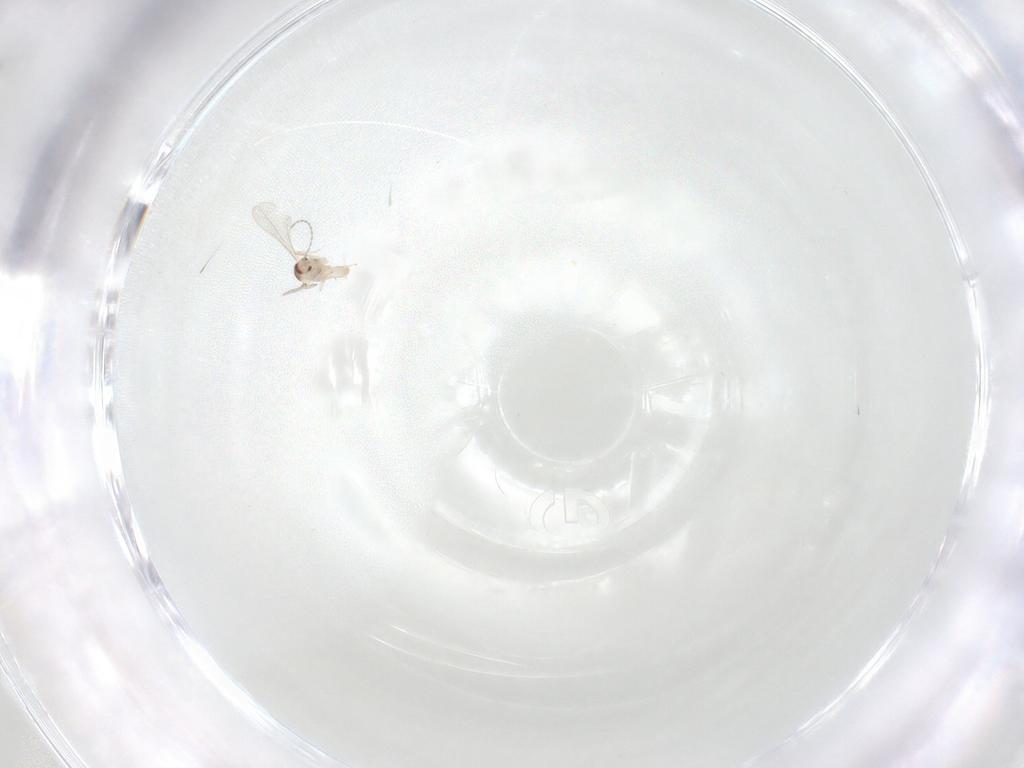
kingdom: Animalia
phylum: Arthropoda
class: Insecta
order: Diptera
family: Cecidomyiidae
